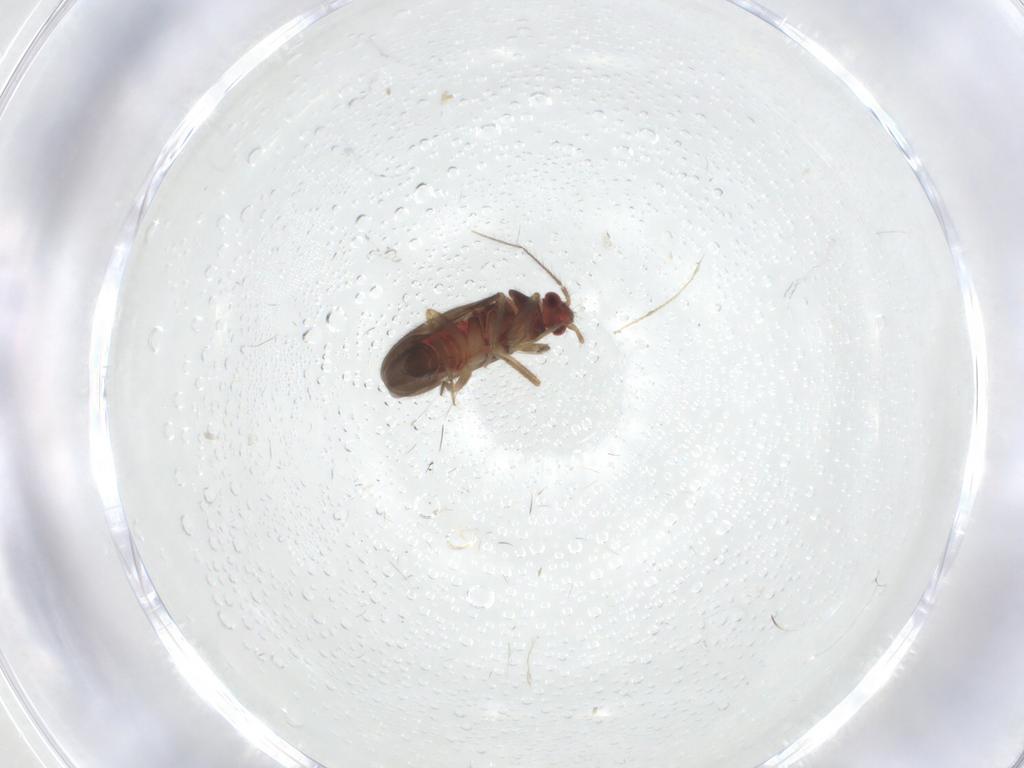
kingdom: Animalia
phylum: Arthropoda
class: Insecta
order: Hemiptera
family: Ceratocombidae
